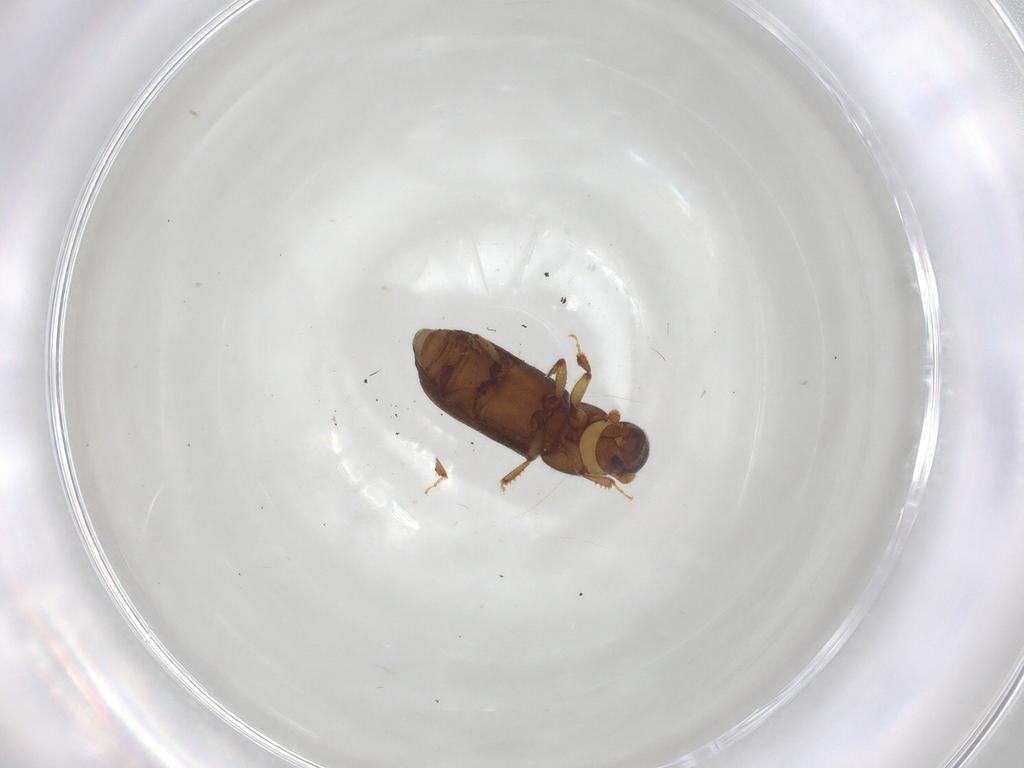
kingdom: Animalia
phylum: Arthropoda
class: Insecta
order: Coleoptera
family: Curculionidae
